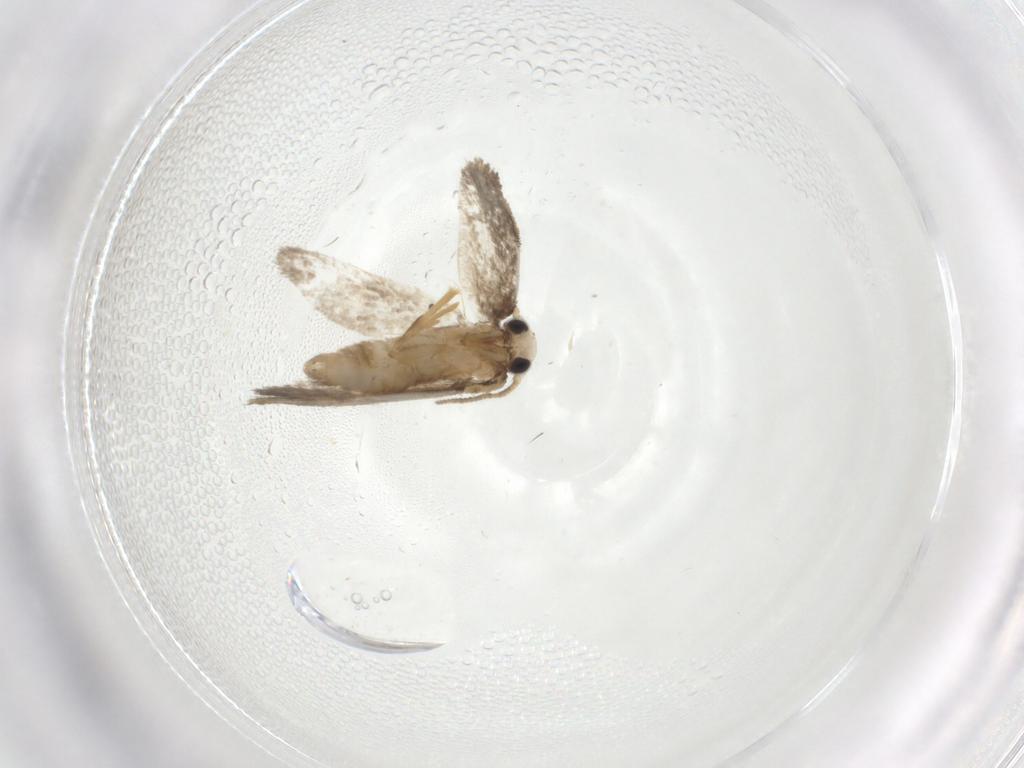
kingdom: Animalia
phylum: Arthropoda
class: Insecta
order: Lepidoptera
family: Psychidae
